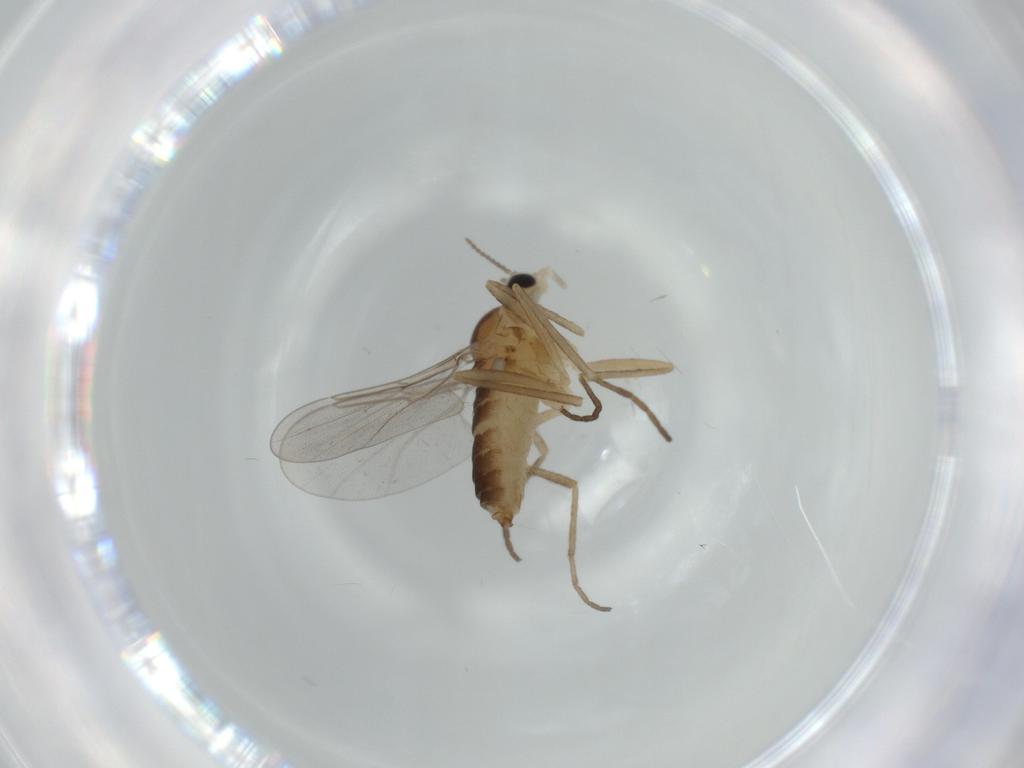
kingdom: Animalia
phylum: Arthropoda
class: Insecta
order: Diptera
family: Cecidomyiidae
